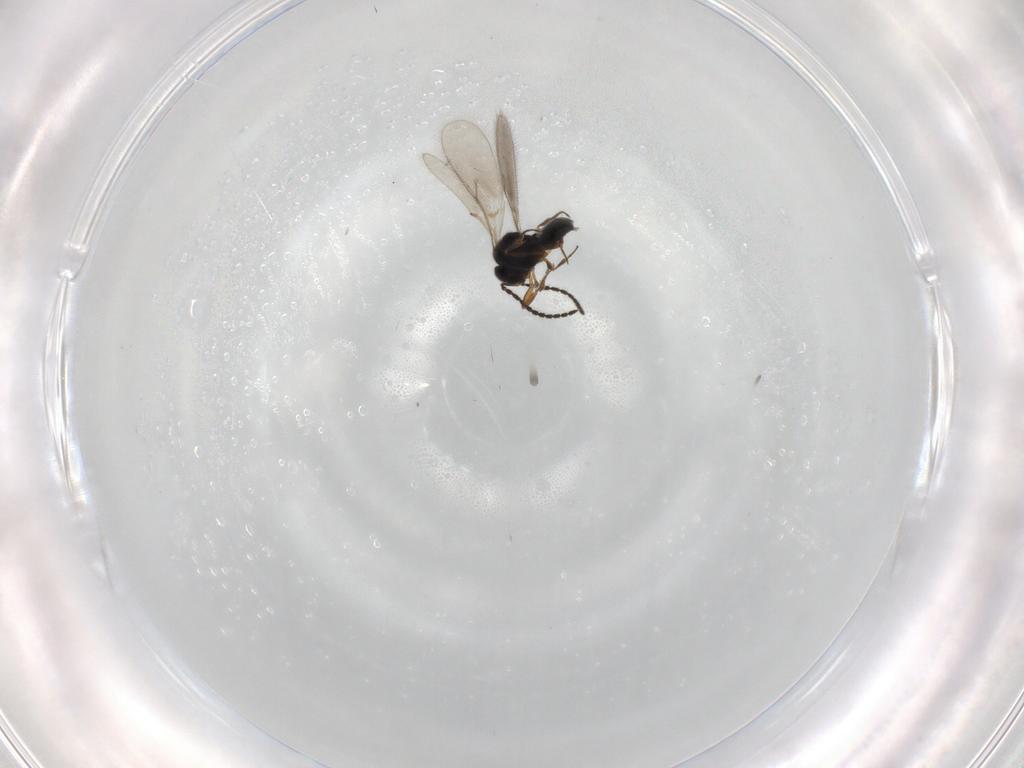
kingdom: Animalia
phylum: Arthropoda
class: Insecta
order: Hymenoptera
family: Scelionidae
